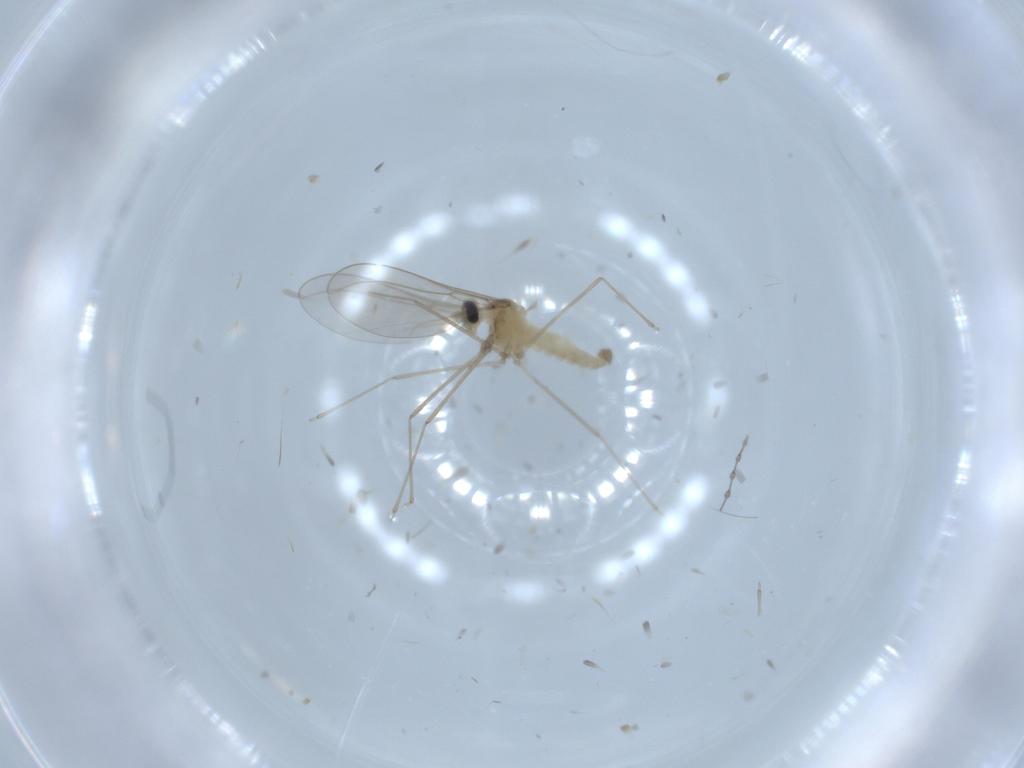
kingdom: Animalia
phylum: Arthropoda
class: Insecta
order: Diptera
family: Cecidomyiidae
